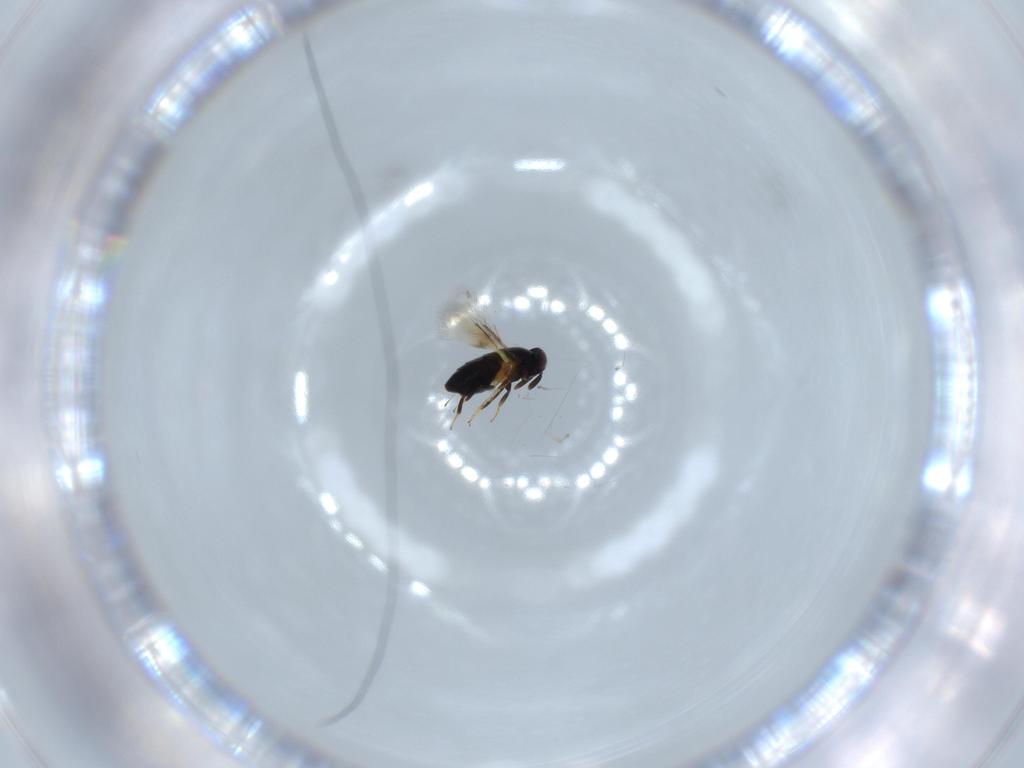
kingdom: Animalia
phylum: Arthropoda
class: Insecta
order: Hymenoptera
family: Signiphoridae
